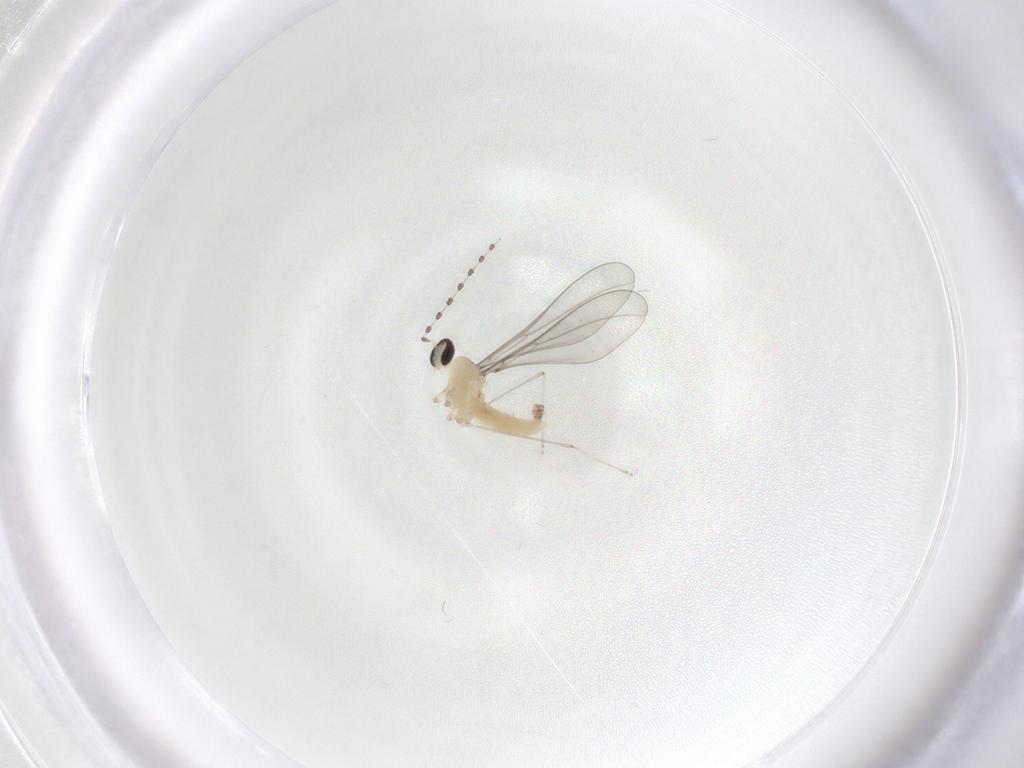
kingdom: Animalia
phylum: Arthropoda
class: Insecta
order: Diptera
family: Cecidomyiidae
